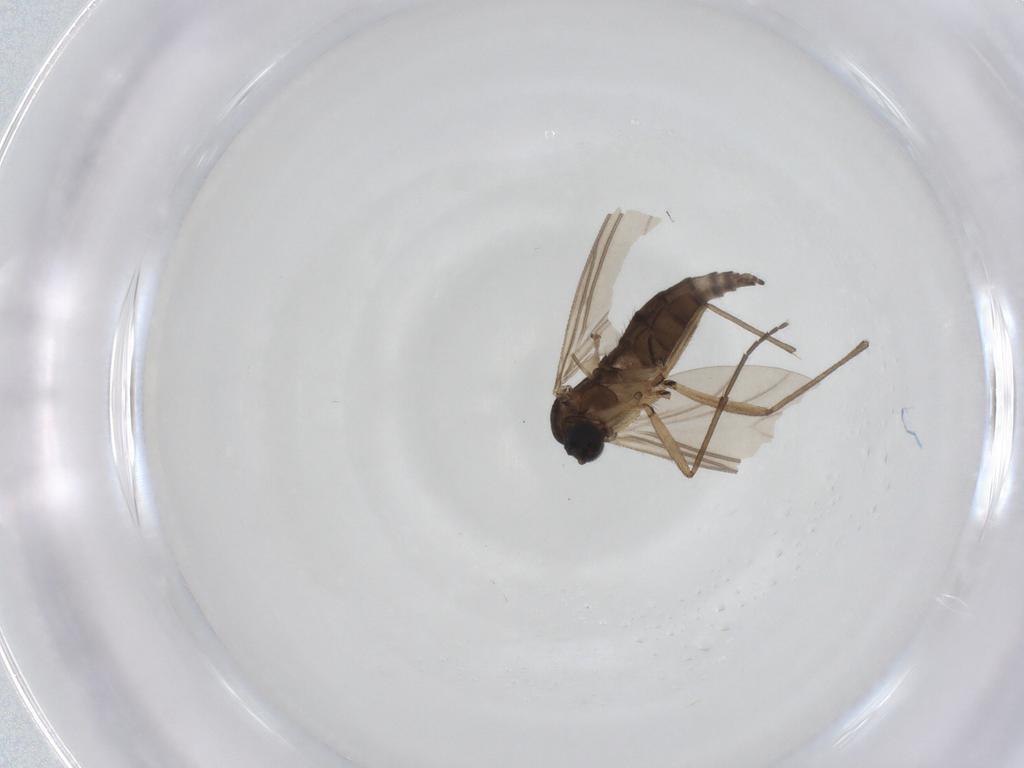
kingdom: Animalia
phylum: Arthropoda
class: Insecta
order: Diptera
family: Sciaridae
